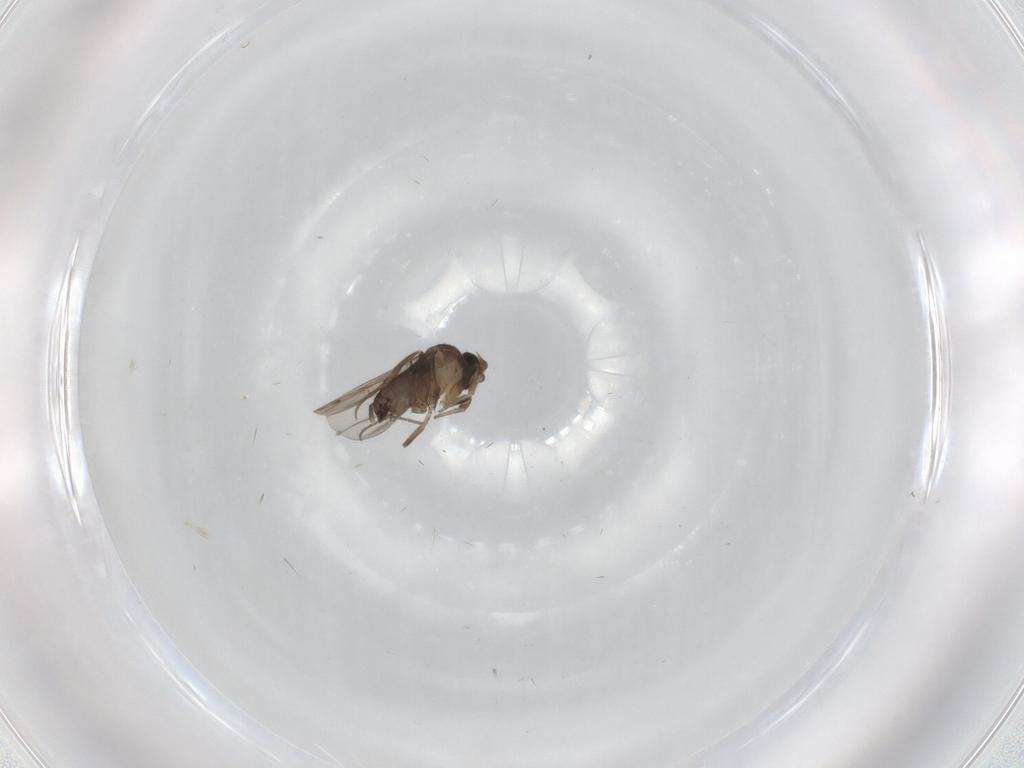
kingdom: Animalia
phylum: Arthropoda
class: Insecta
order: Diptera
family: Phoridae
